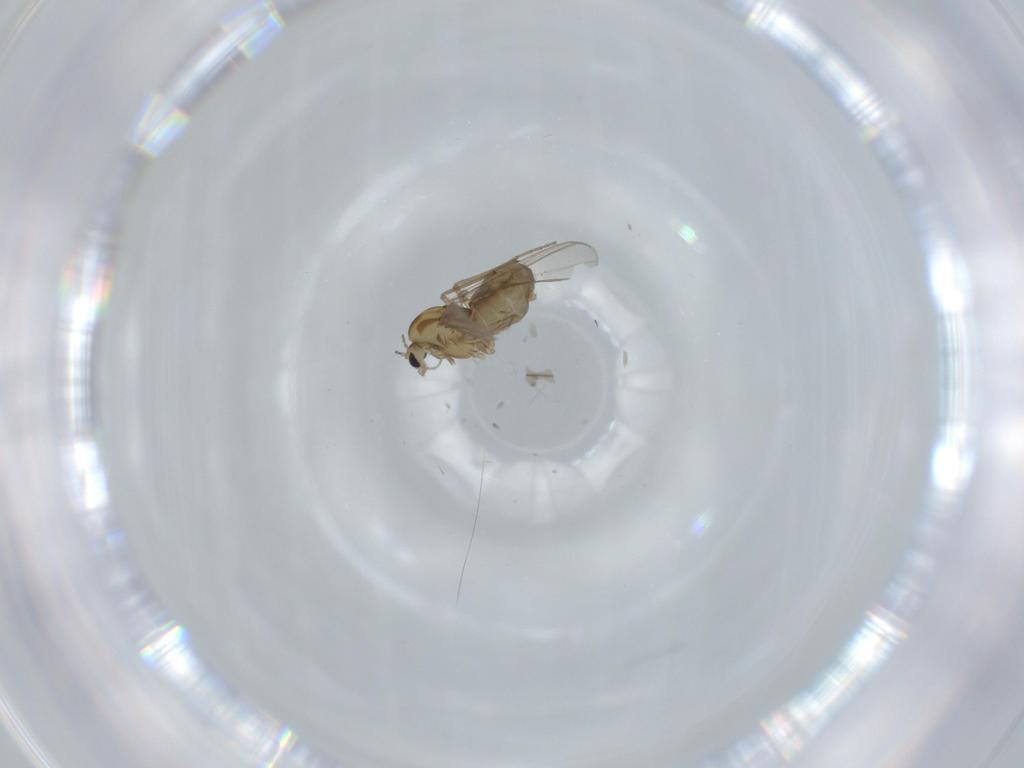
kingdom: Animalia
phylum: Arthropoda
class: Insecta
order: Diptera
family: Chironomidae
